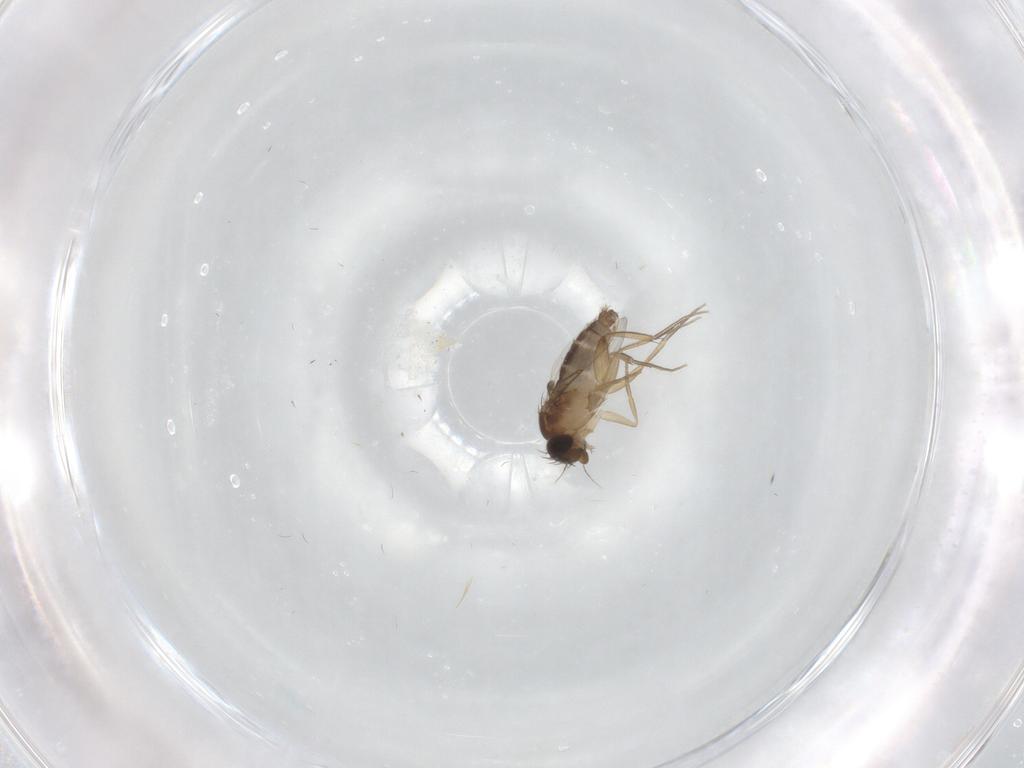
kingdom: Animalia
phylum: Arthropoda
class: Insecta
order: Diptera
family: Phoridae
